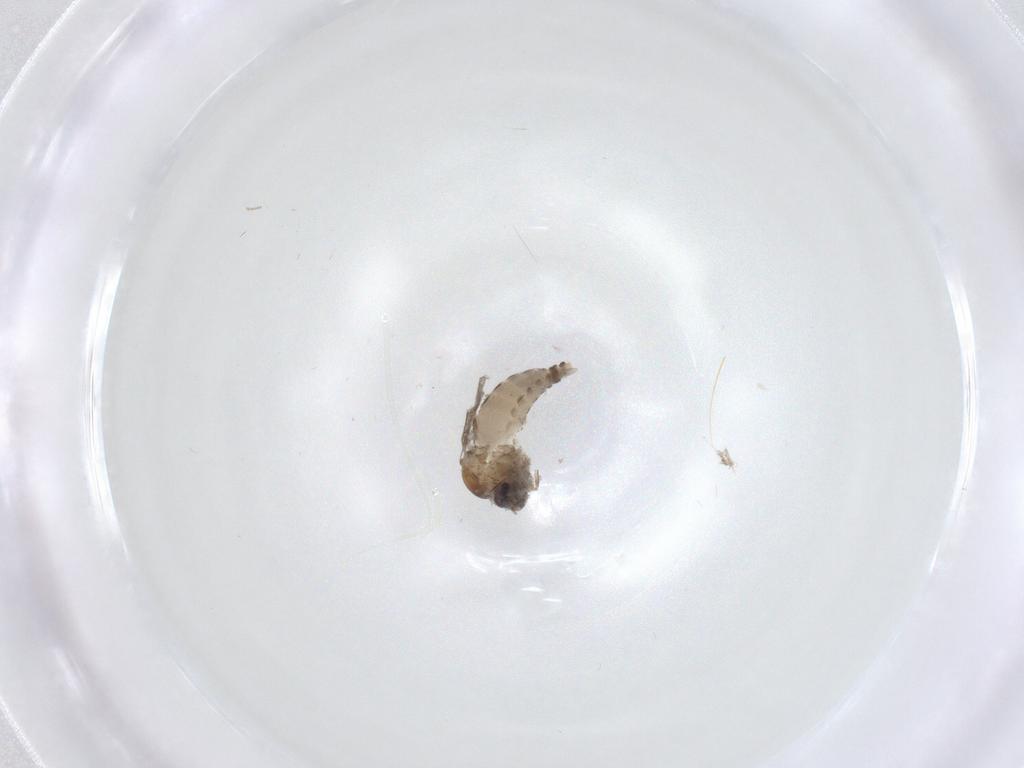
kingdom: Animalia
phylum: Arthropoda
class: Insecta
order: Diptera
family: Ceratopogonidae
